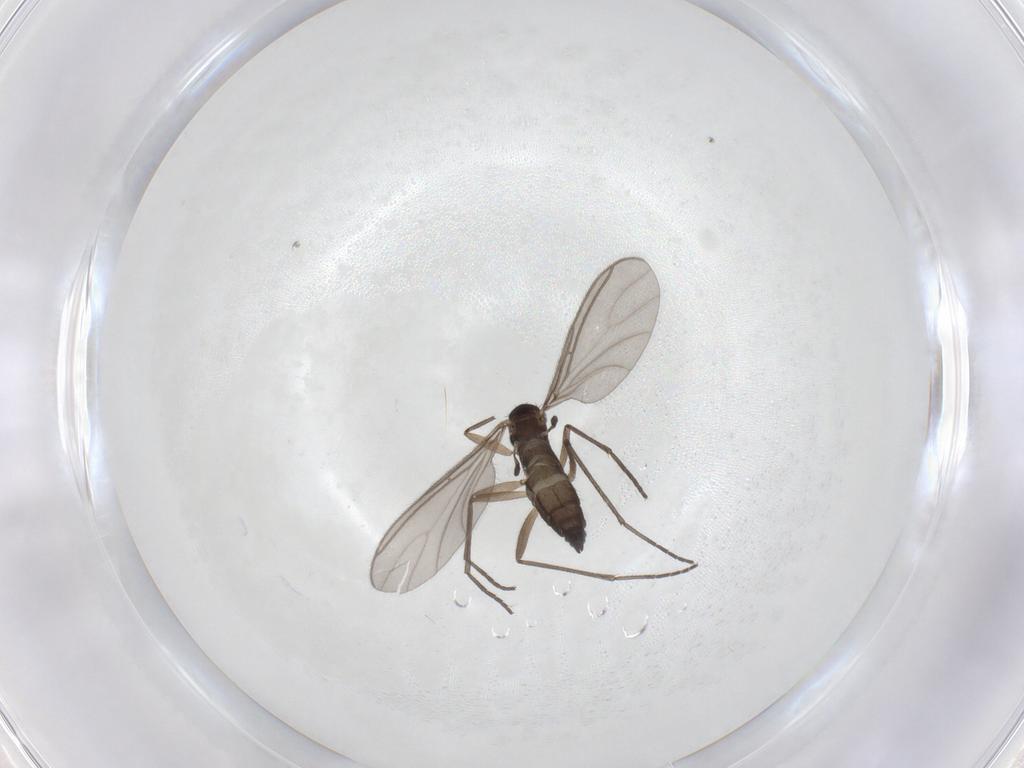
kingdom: Animalia
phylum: Arthropoda
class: Insecta
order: Diptera
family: Sciaridae
